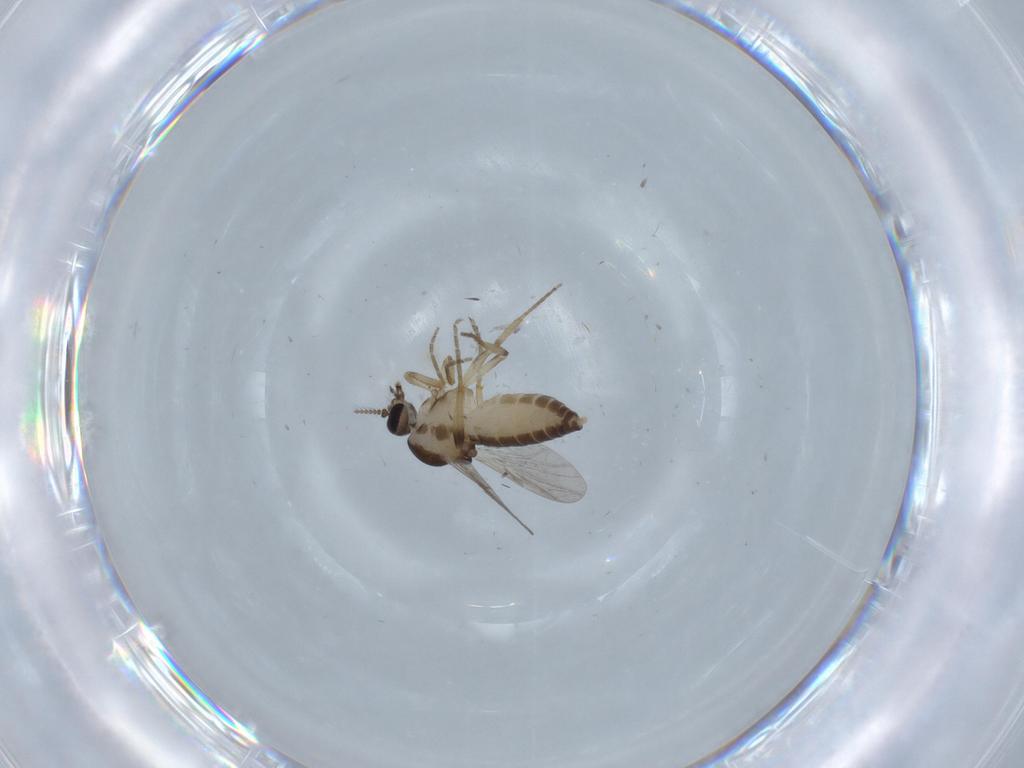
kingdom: Animalia
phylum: Arthropoda
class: Insecta
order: Diptera
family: Ceratopogonidae
